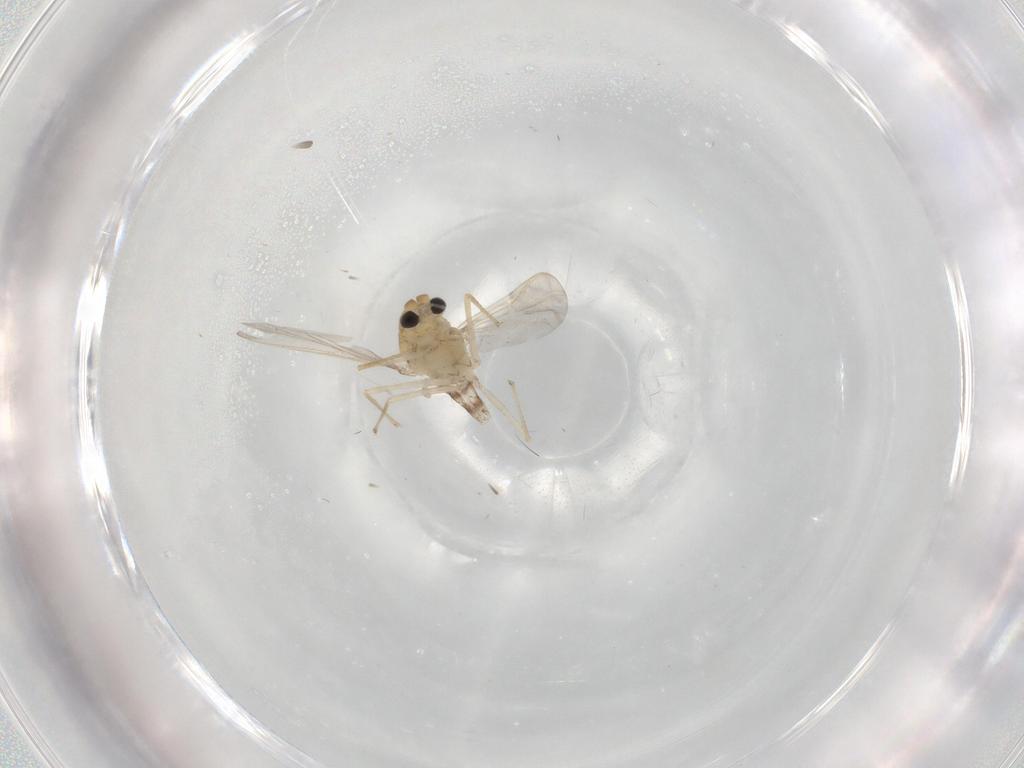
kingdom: Animalia
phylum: Arthropoda
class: Insecta
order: Diptera
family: Chironomidae
